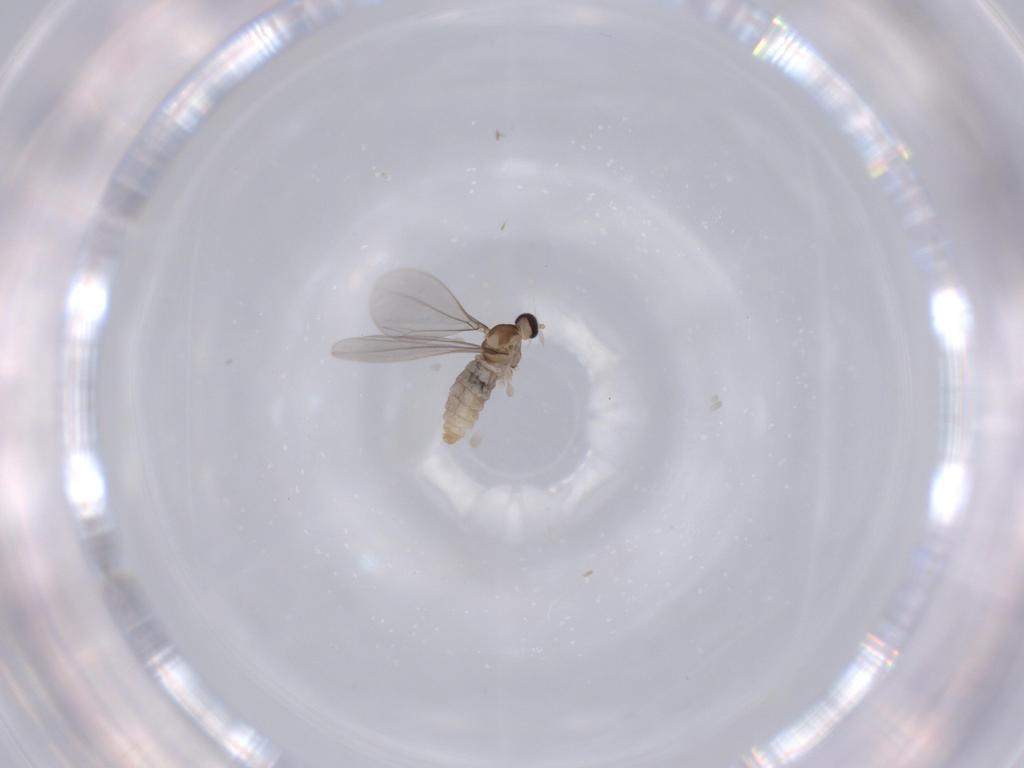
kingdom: Animalia
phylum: Arthropoda
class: Insecta
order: Diptera
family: Cecidomyiidae
